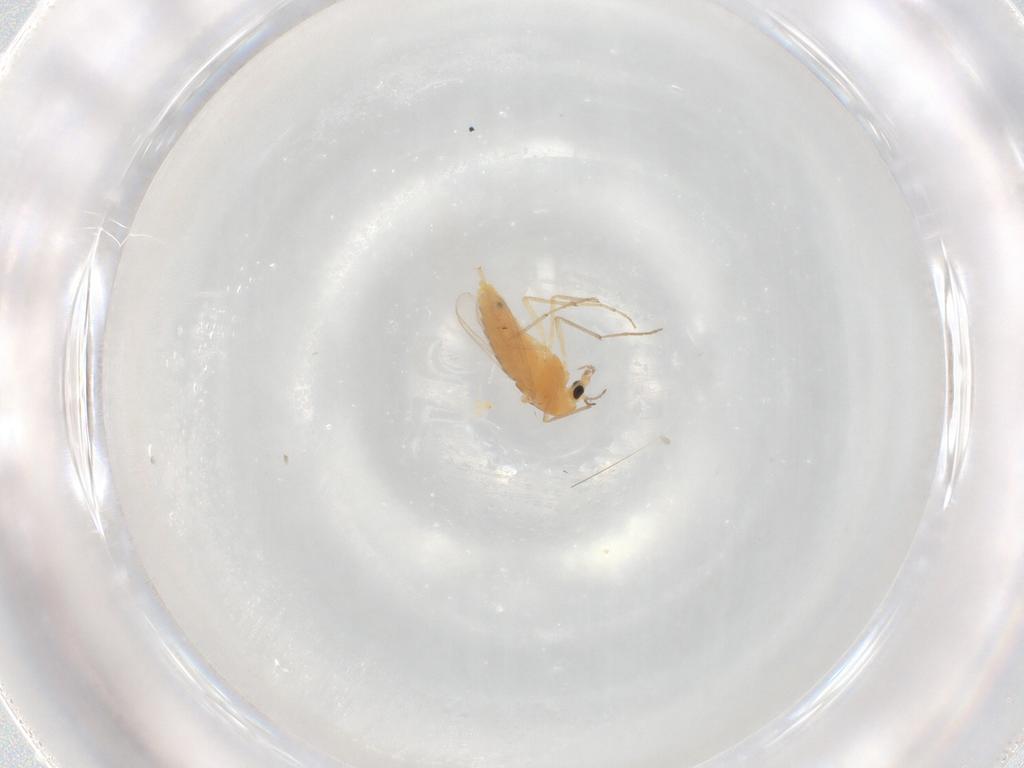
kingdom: Animalia
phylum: Arthropoda
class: Insecta
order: Diptera
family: Chironomidae
